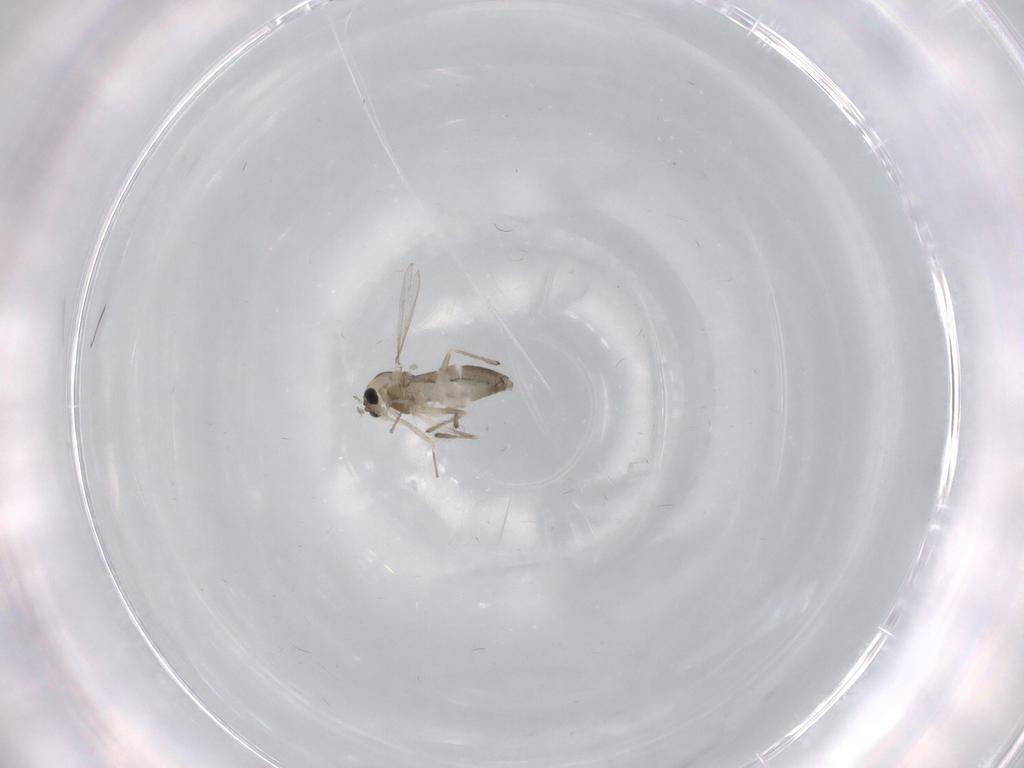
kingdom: Animalia
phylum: Arthropoda
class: Insecta
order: Diptera
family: Chironomidae
